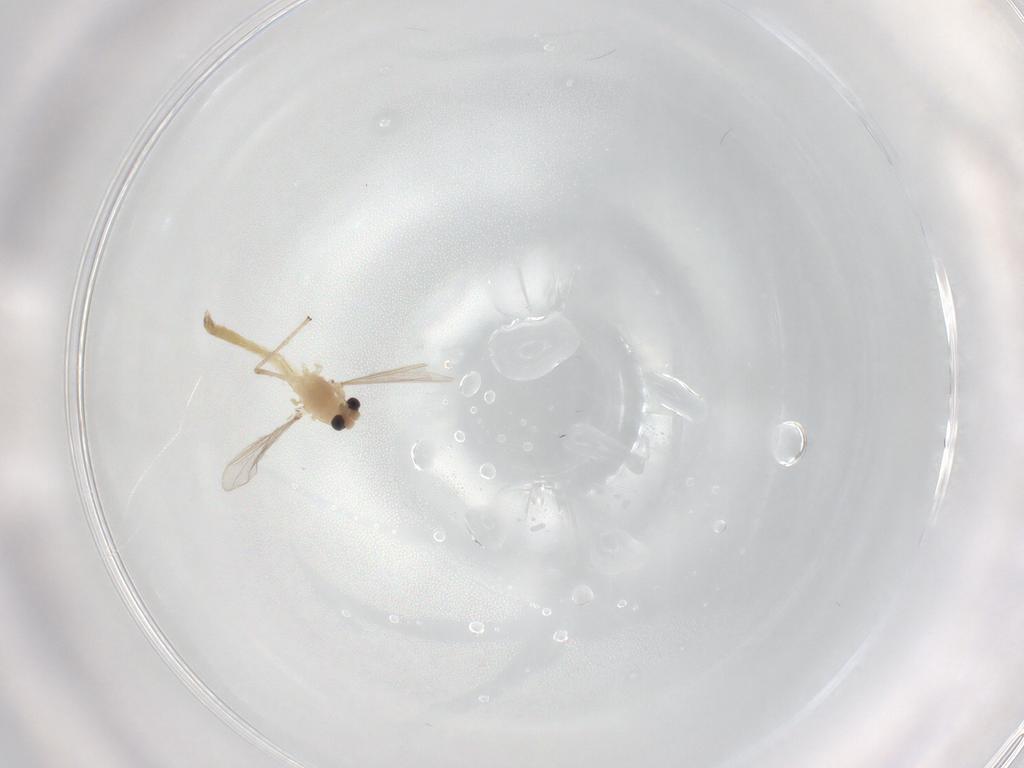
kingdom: Animalia
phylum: Arthropoda
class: Insecta
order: Diptera
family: Chironomidae
